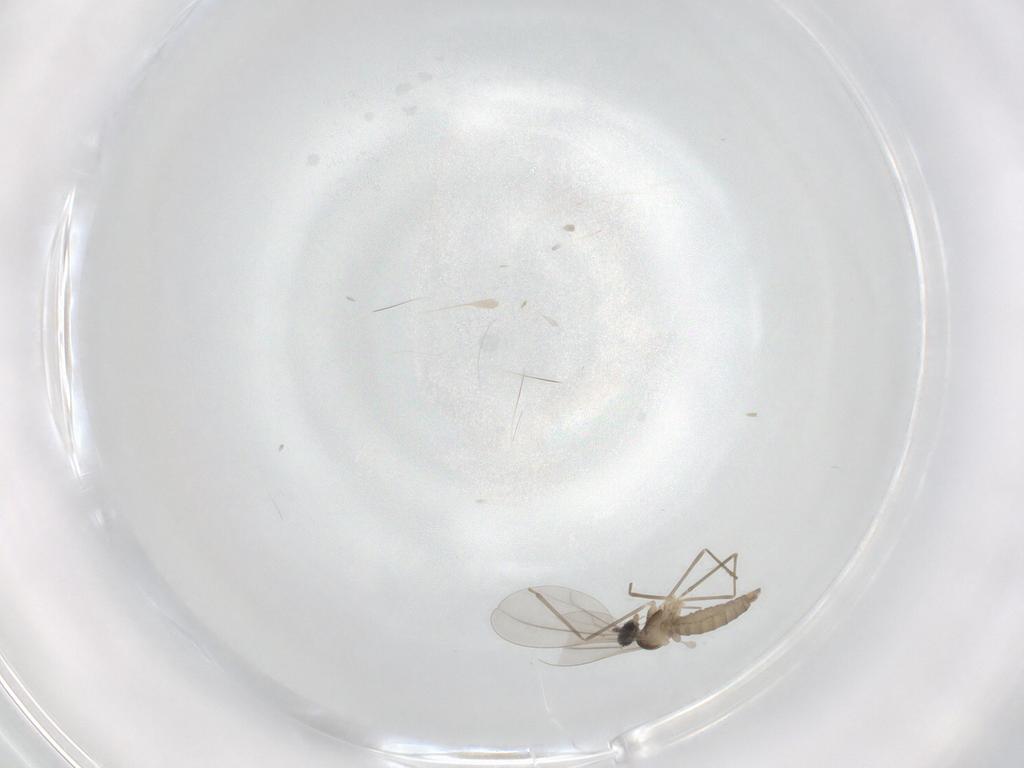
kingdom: Animalia
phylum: Arthropoda
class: Insecta
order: Diptera
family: Cecidomyiidae
